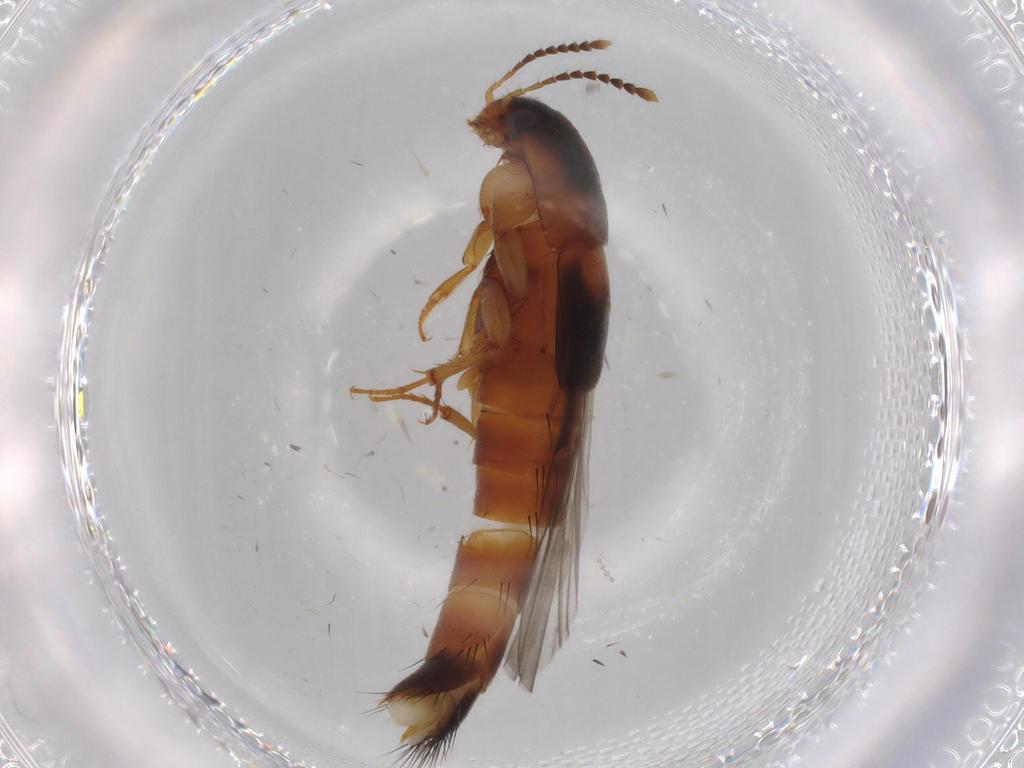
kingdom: Animalia
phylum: Arthropoda
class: Insecta
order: Coleoptera
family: Staphylinidae
